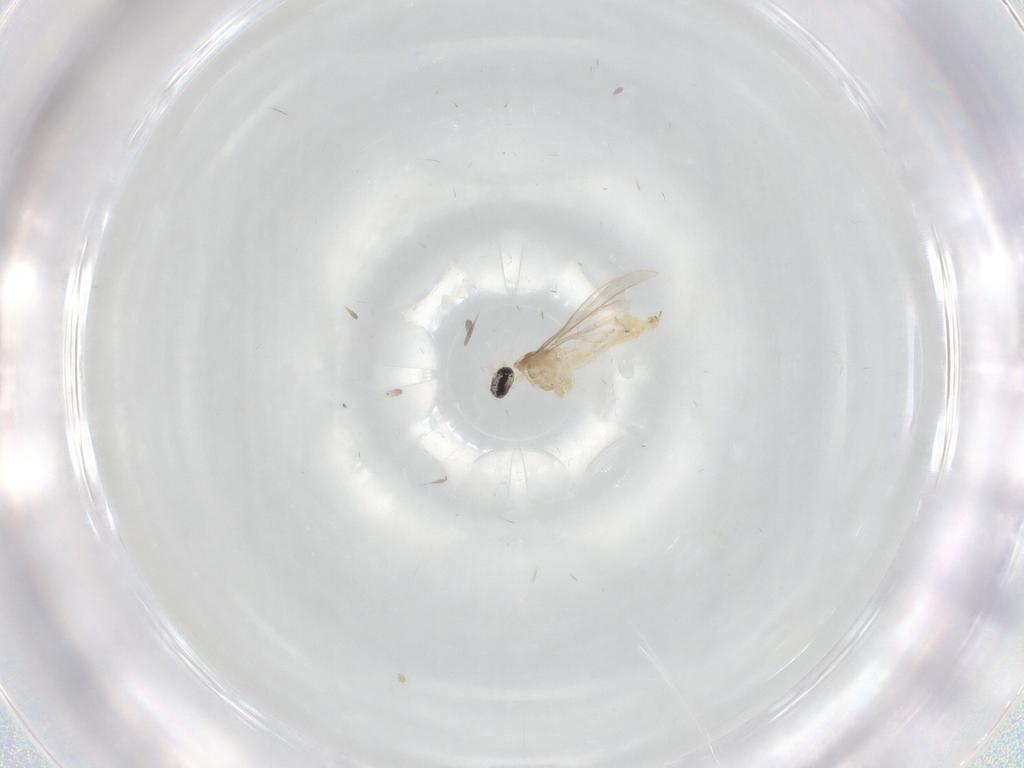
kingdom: Animalia
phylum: Arthropoda
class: Insecta
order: Diptera
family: Cecidomyiidae
